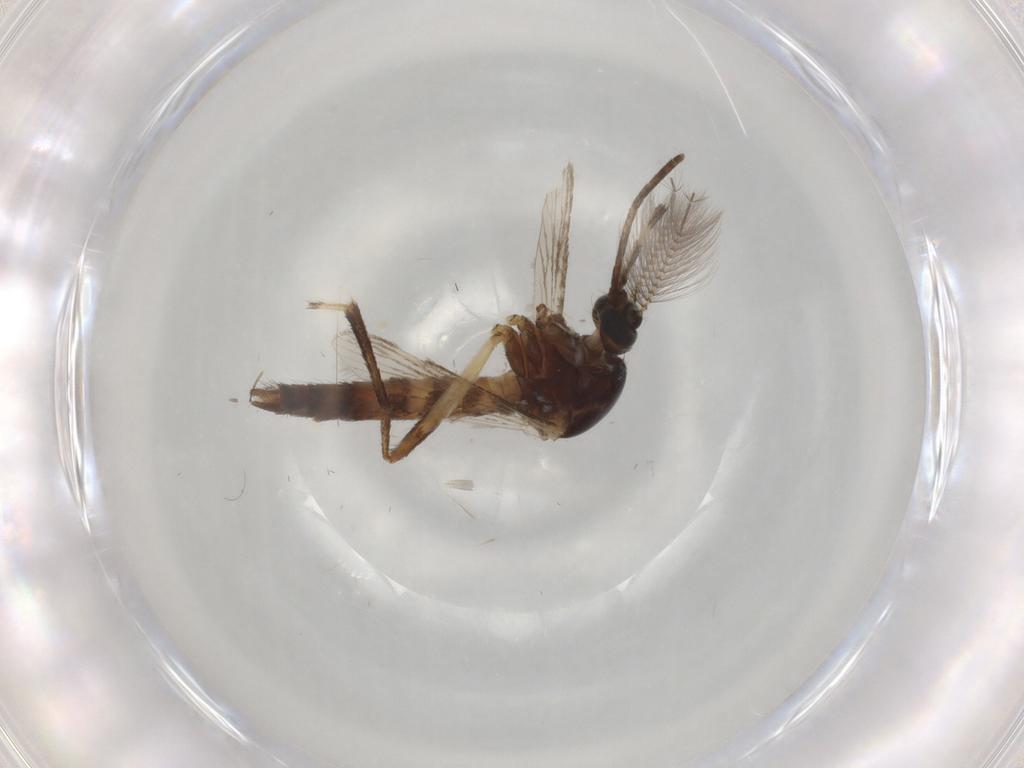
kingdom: Animalia
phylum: Arthropoda
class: Insecta
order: Diptera
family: Culicidae
